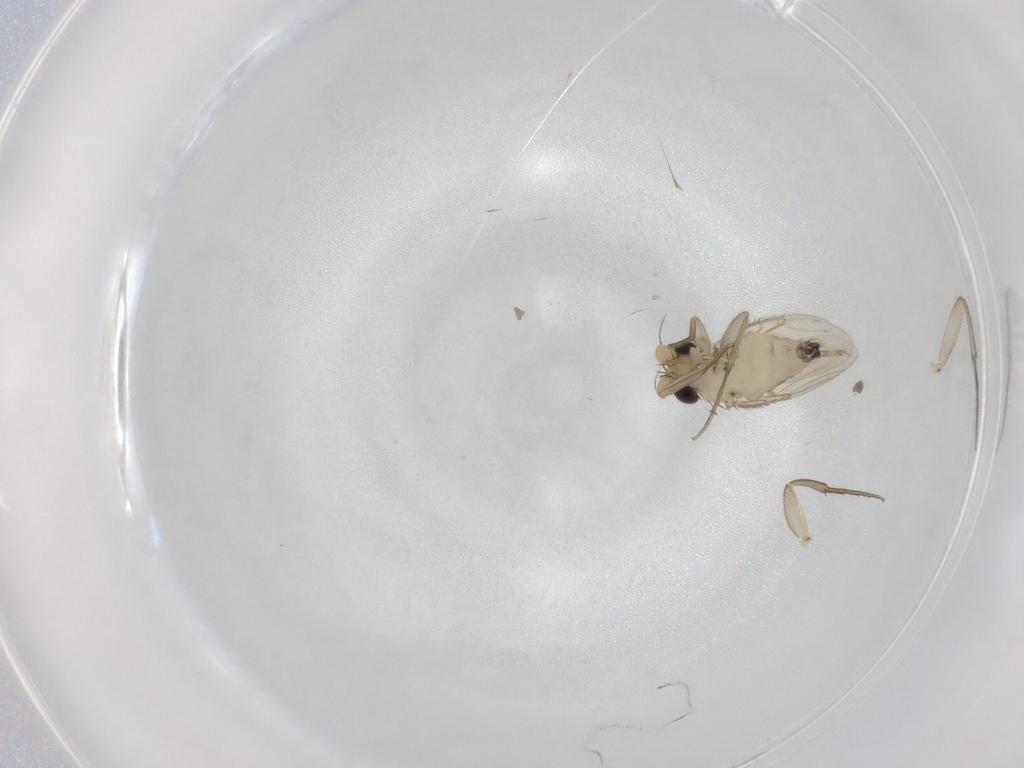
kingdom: Animalia
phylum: Arthropoda
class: Insecta
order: Diptera
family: Phoridae
